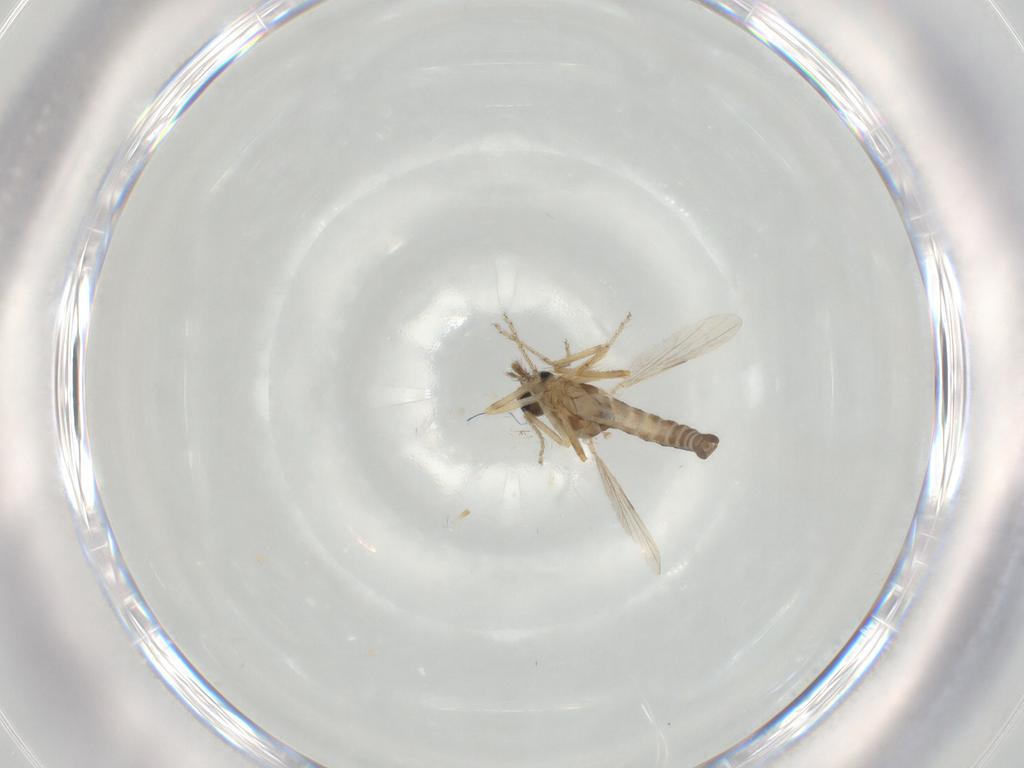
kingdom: Animalia
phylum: Arthropoda
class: Insecta
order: Diptera
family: Ceratopogonidae
